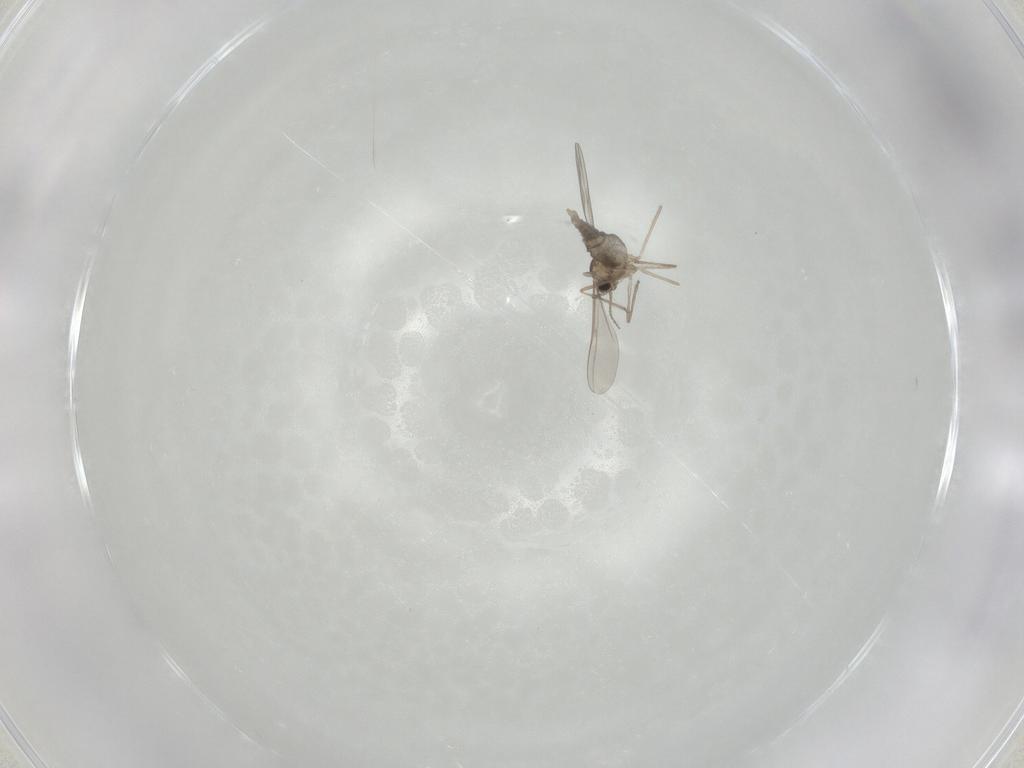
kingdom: Animalia
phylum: Arthropoda
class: Insecta
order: Diptera
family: Cecidomyiidae
